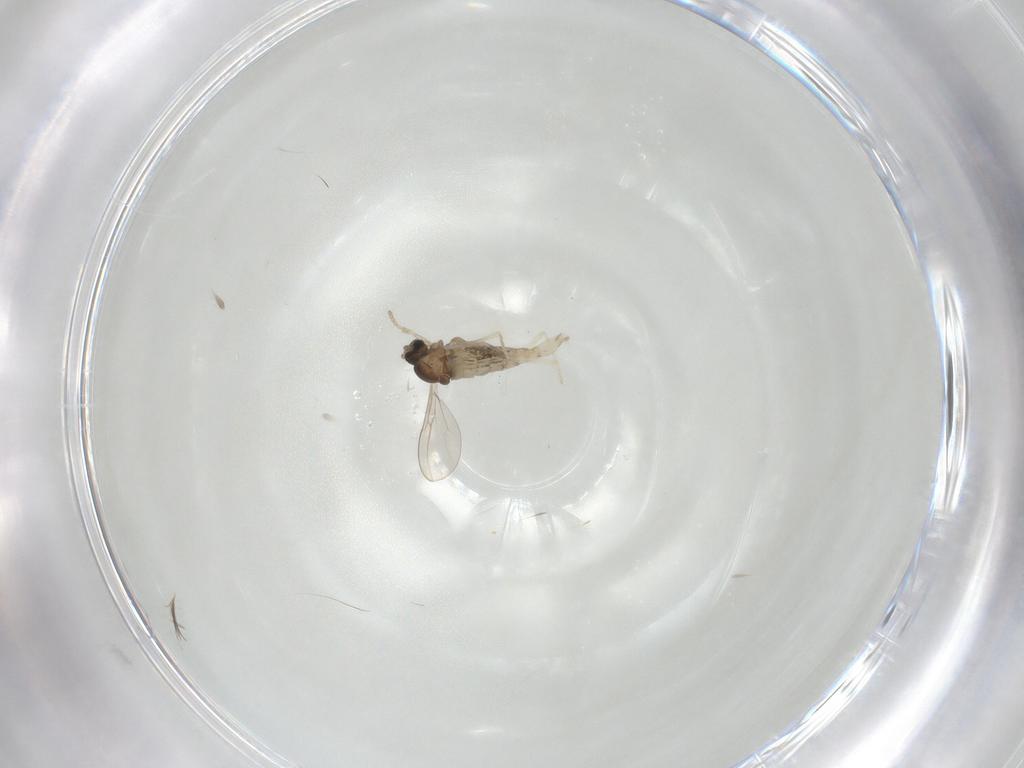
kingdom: Animalia
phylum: Arthropoda
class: Insecta
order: Diptera
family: Cecidomyiidae
